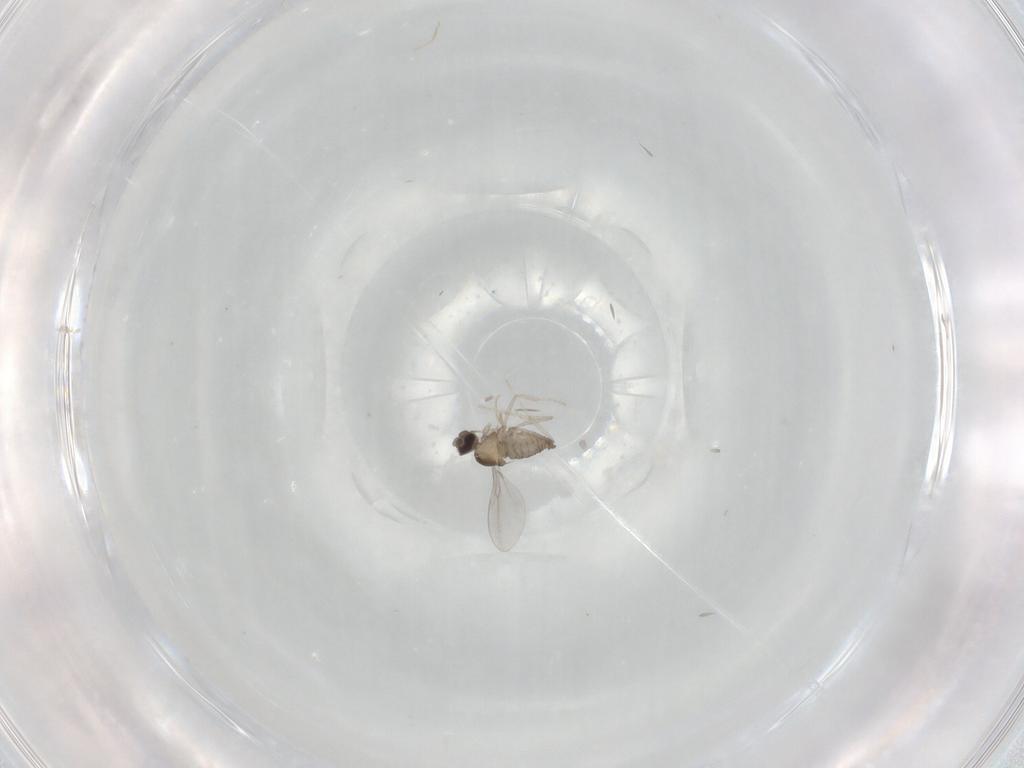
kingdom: Animalia
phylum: Arthropoda
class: Insecta
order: Diptera
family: Cecidomyiidae
